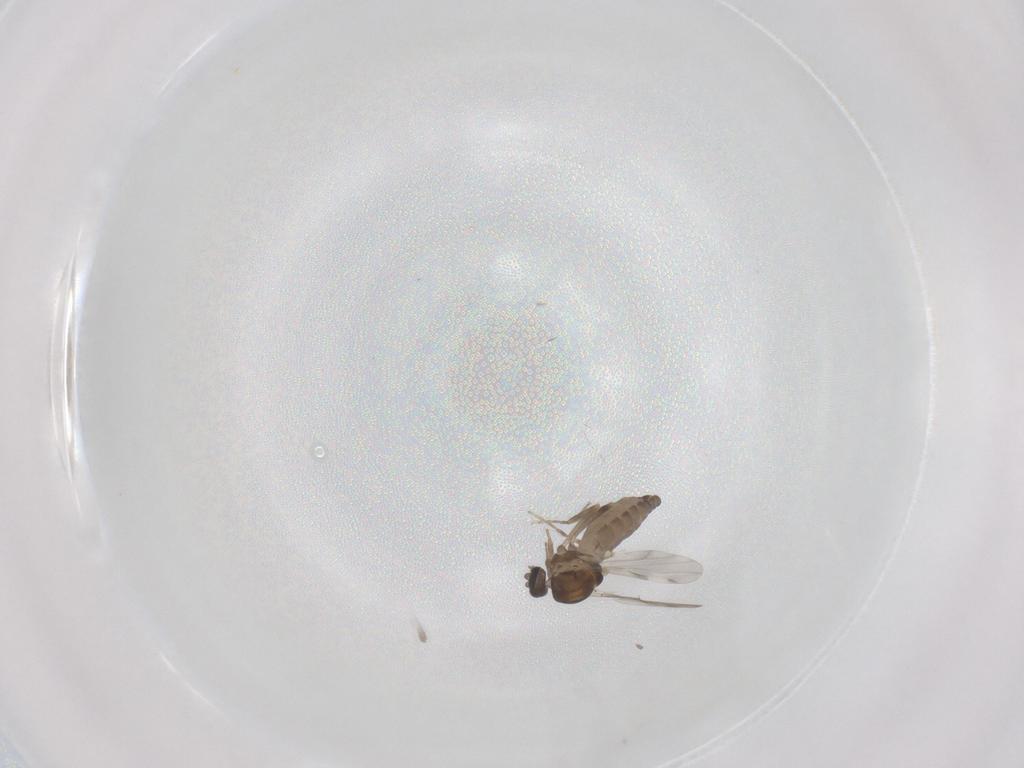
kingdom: Animalia
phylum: Arthropoda
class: Insecta
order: Diptera
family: Ceratopogonidae
